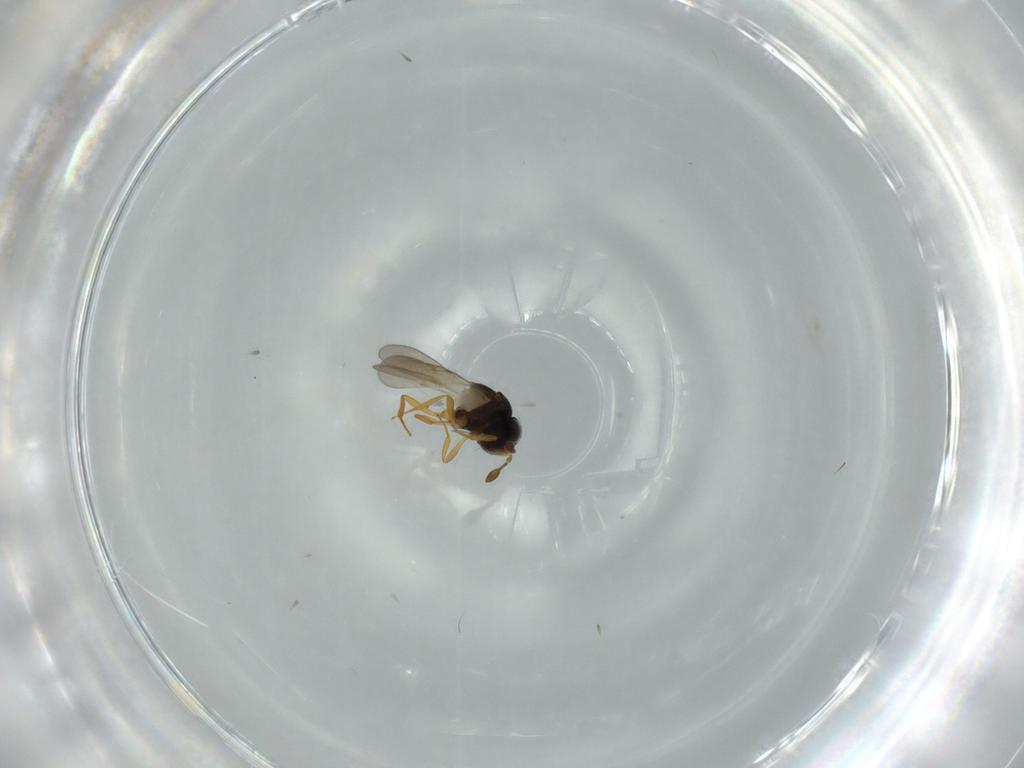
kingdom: Animalia
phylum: Arthropoda
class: Insecta
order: Hymenoptera
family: Scelionidae
